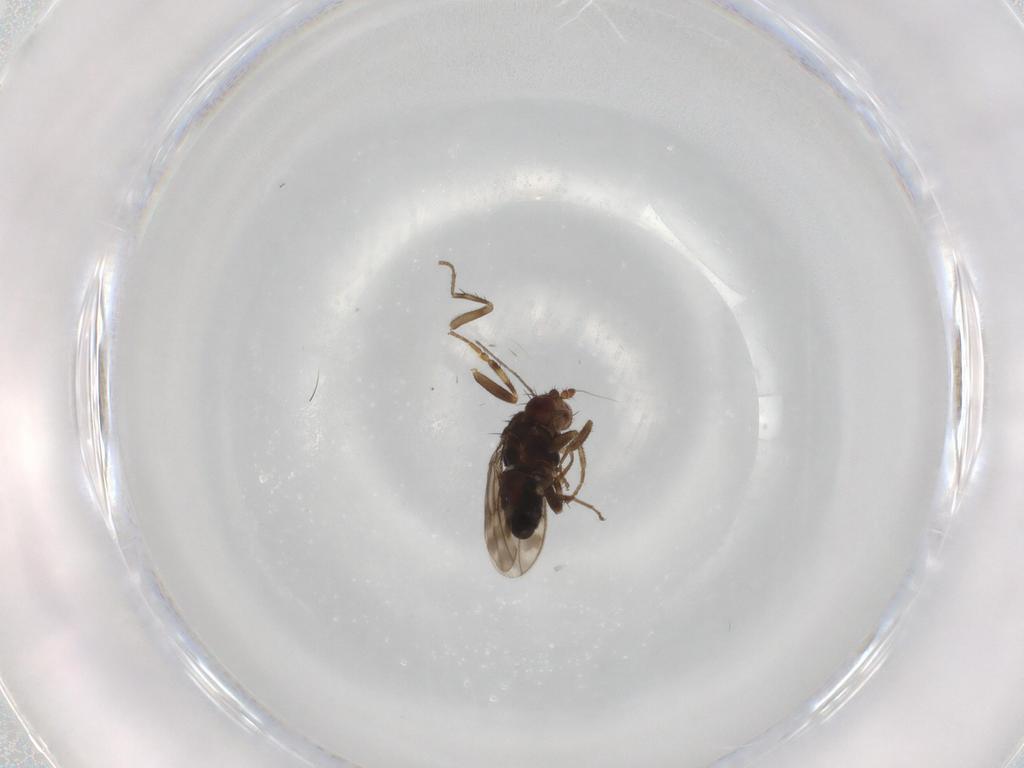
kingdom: Animalia
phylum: Arthropoda
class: Insecta
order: Diptera
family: Sphaeroceridae
